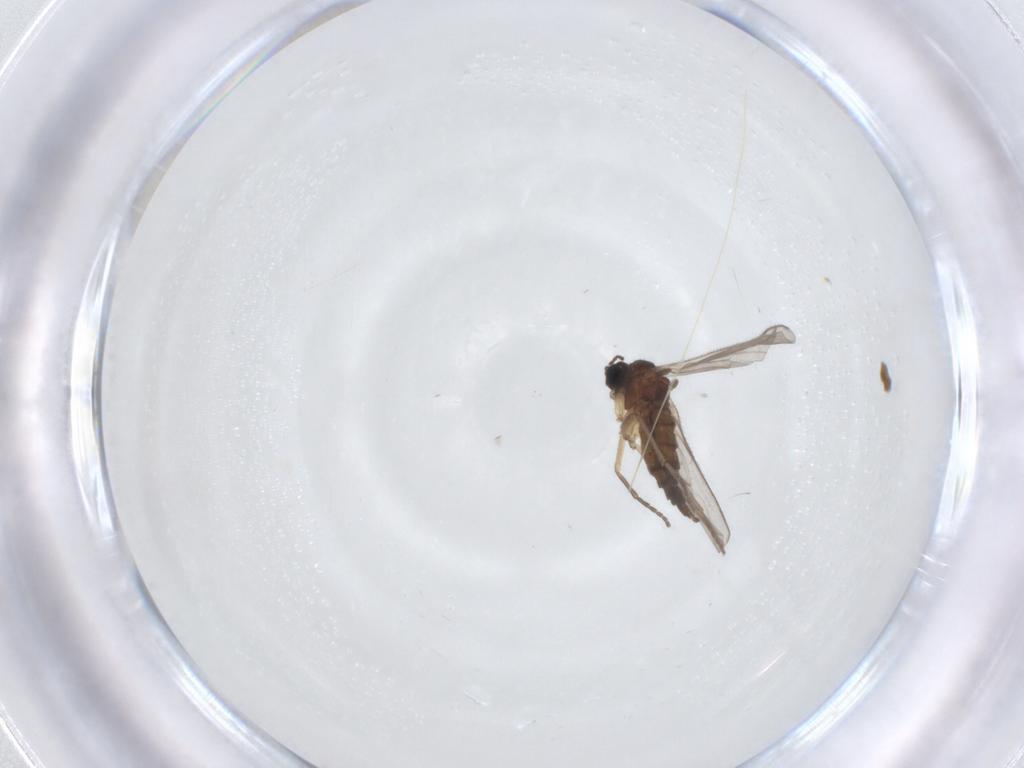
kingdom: Animalia
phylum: Arthropoda
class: Insecta
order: Diptera
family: Sciaridae
